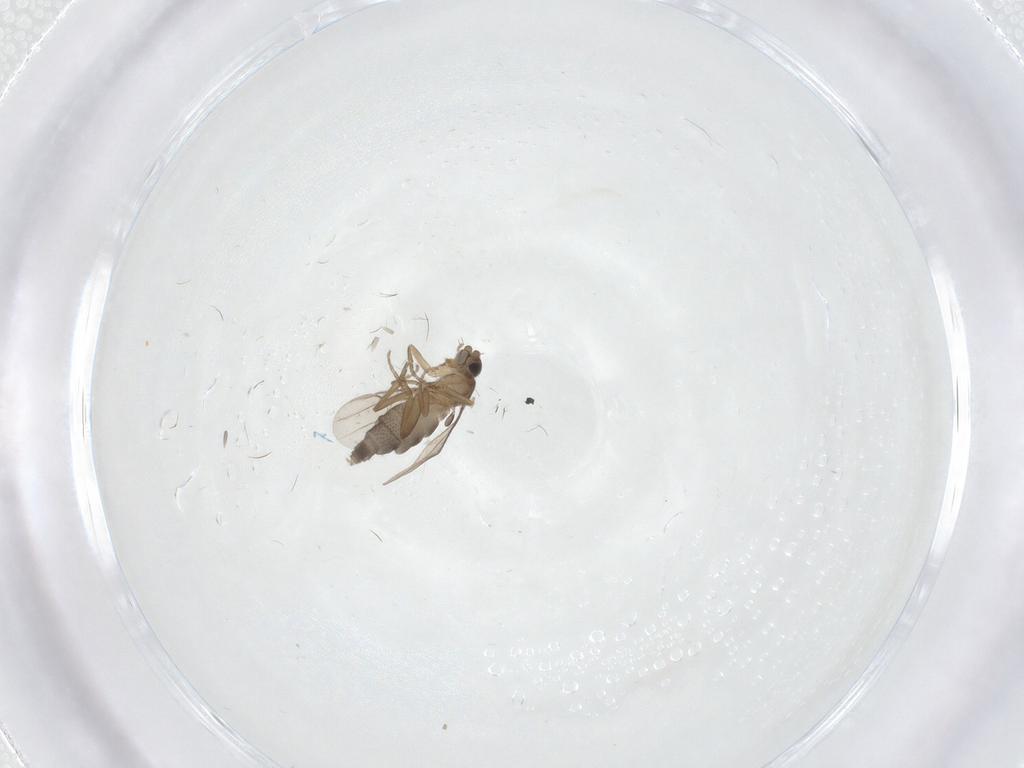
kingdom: Animalia
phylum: Arthropoda
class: Insecta
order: Diptera
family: Phoridae
